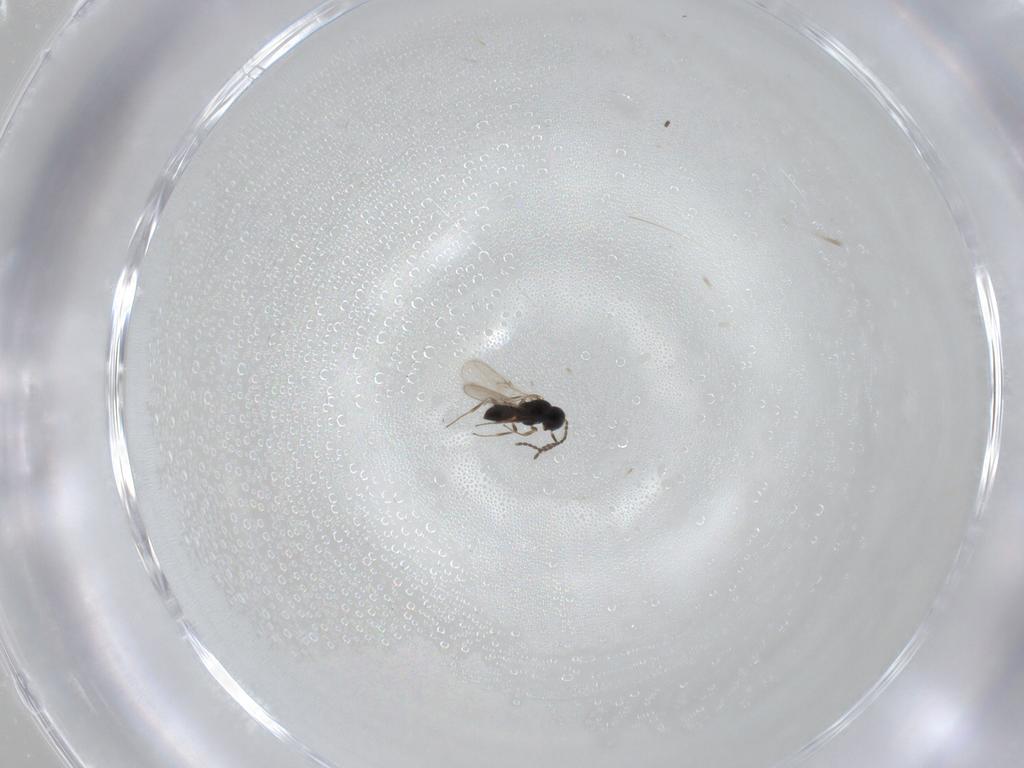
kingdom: Animalia
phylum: Arthropoda
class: Insecta
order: Hymenoptera
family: Scelionidae
